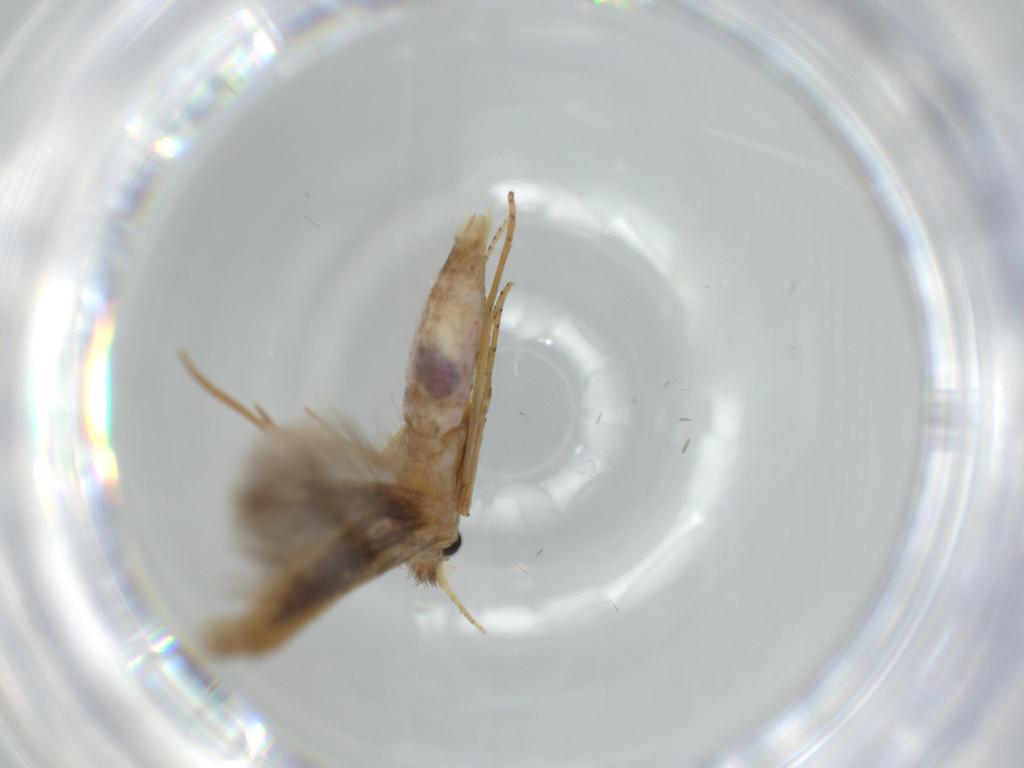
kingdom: Animalia
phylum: Arthropoda
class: Insecta
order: Lepidoptera
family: Bedelliidae
